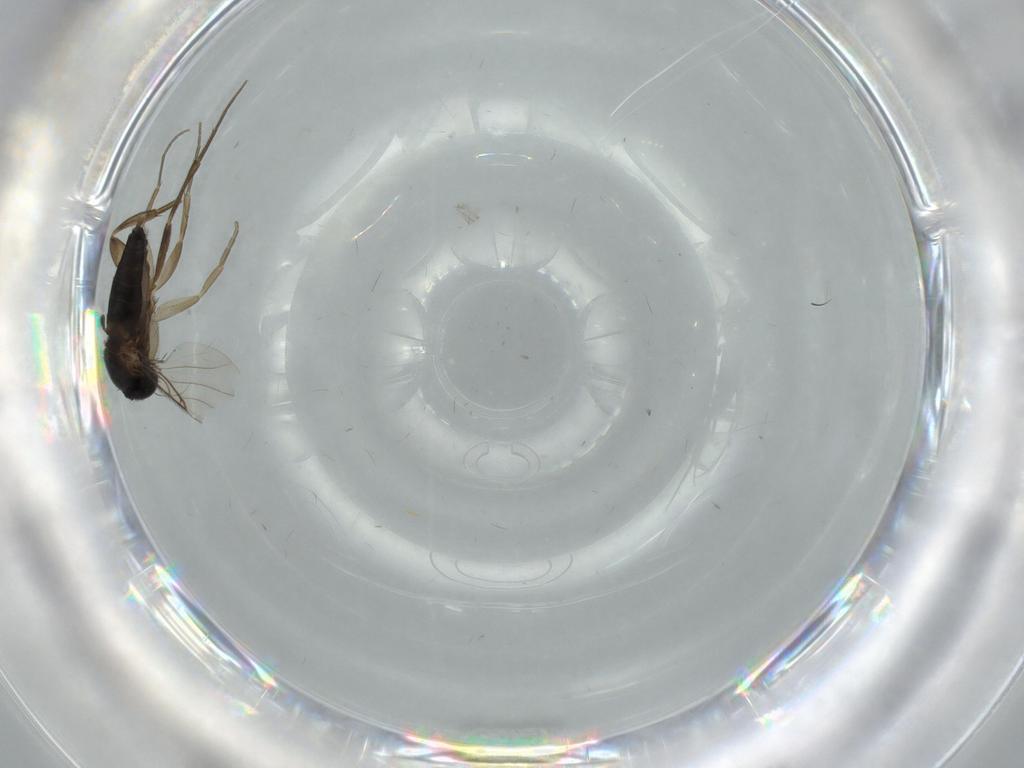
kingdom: Animalia
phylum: Arthropoda
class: Insecta
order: Diptera
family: Phoridae
